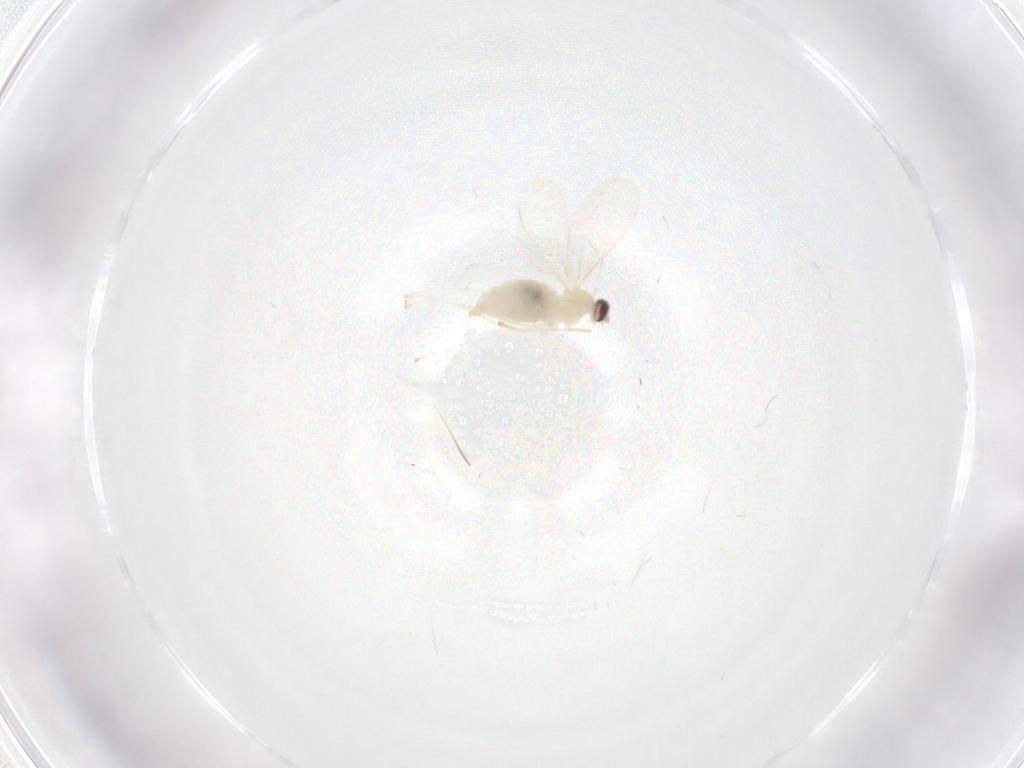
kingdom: Animalia
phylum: Arthropoda
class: Insecta
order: Diptera
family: Cecidomyiidae
